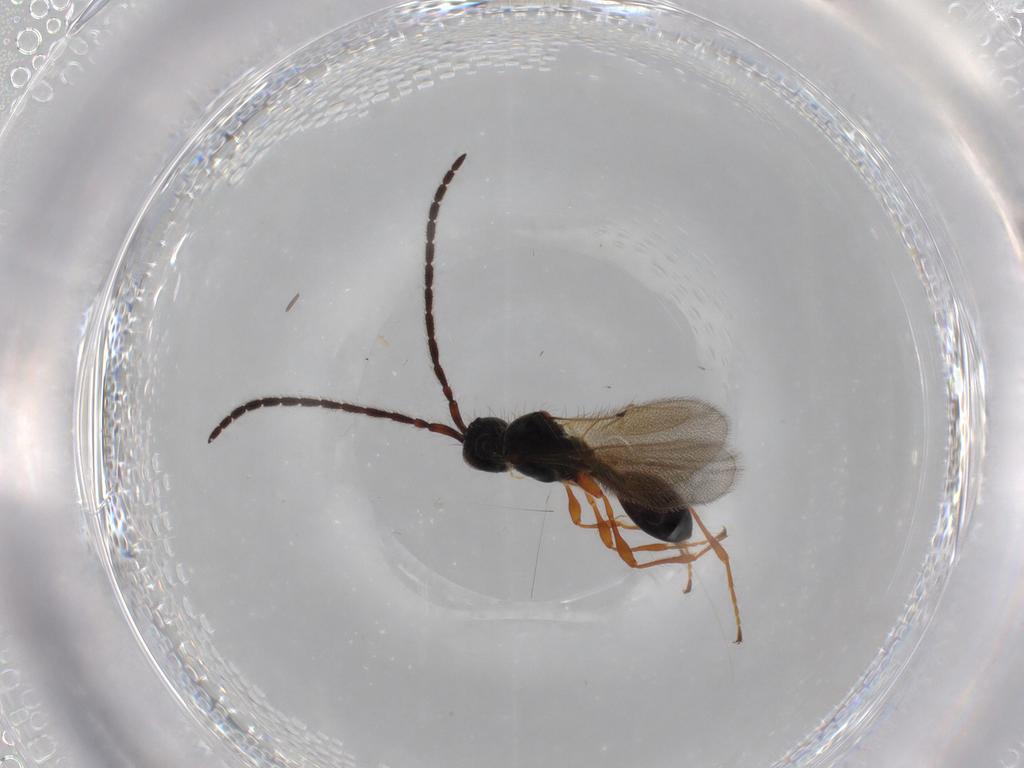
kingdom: Animalia
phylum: Arthropoda
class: Insecta
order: Hymenoptera
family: Diapriidae
